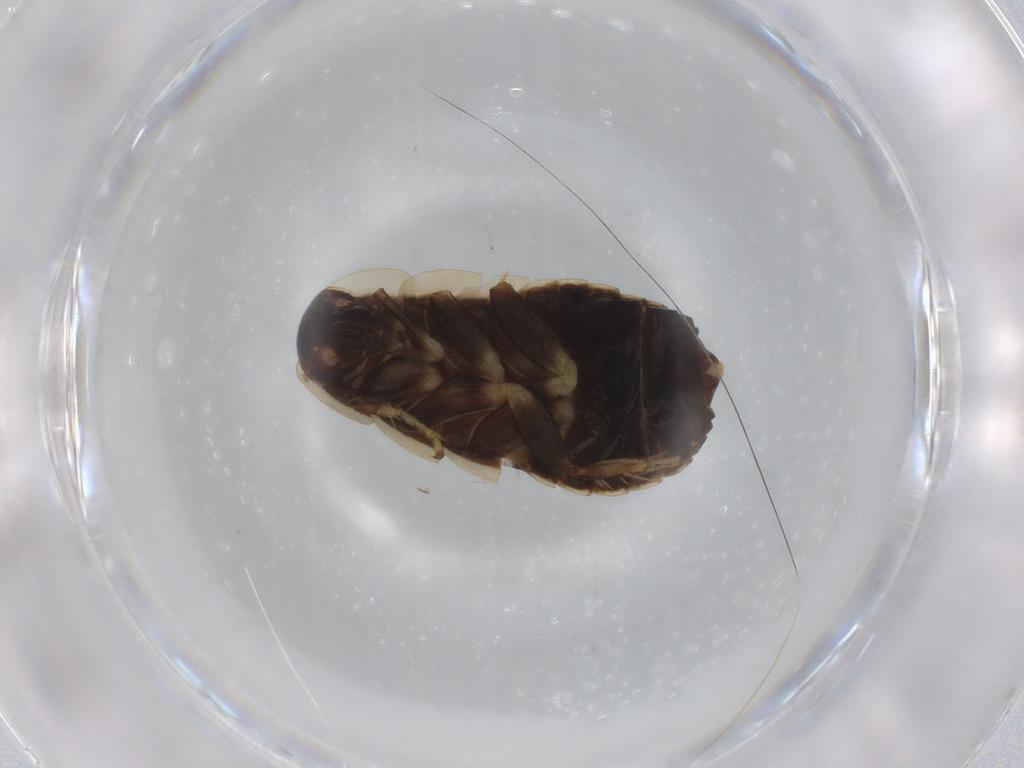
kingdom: Animalia
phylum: Arthropoda
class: Insecta
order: Blattodea
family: Ectobiidae
